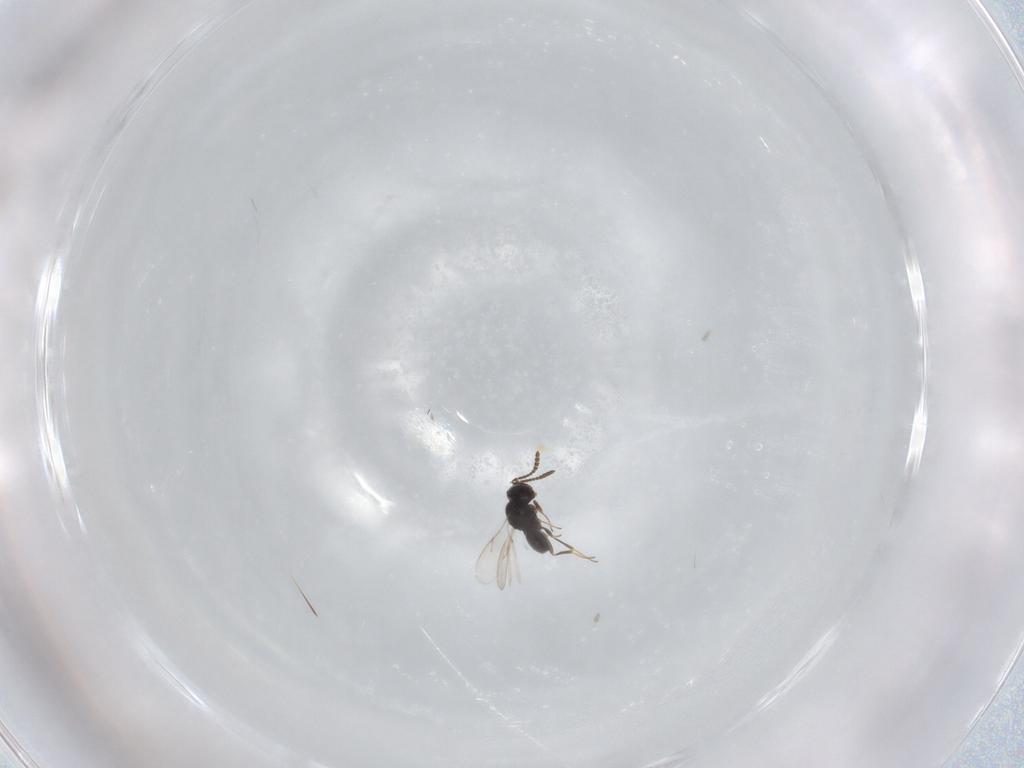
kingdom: Animalia
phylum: Arthropoda
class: Insecta
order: Hymenoptera
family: Scelionidae
